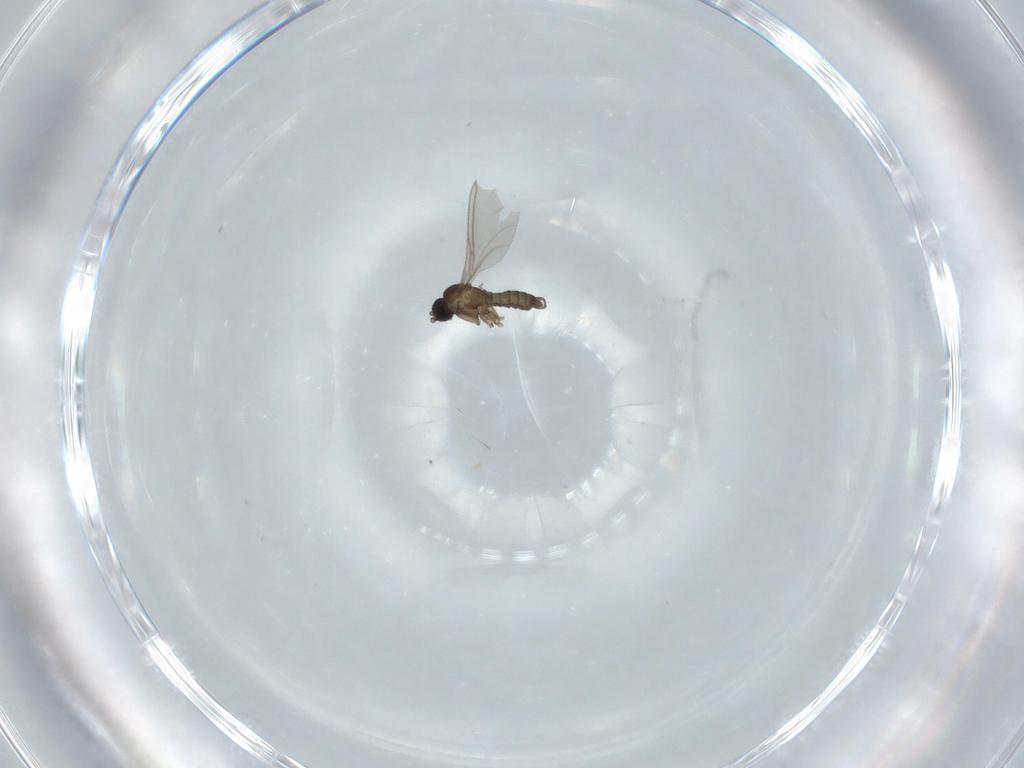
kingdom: Animalia
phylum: Arthropoda
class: Insecta
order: Diptera
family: Sciaridae
